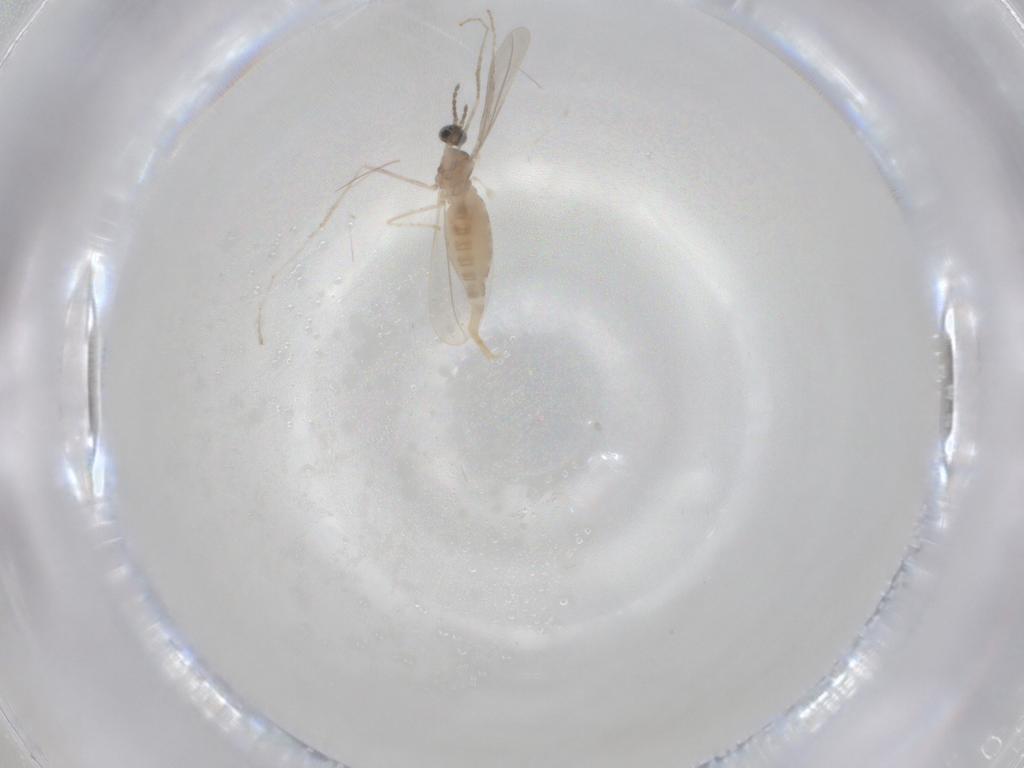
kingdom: Animalia
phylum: Arthropoda
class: Insecta
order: Diptera
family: Cecidomyiidae
